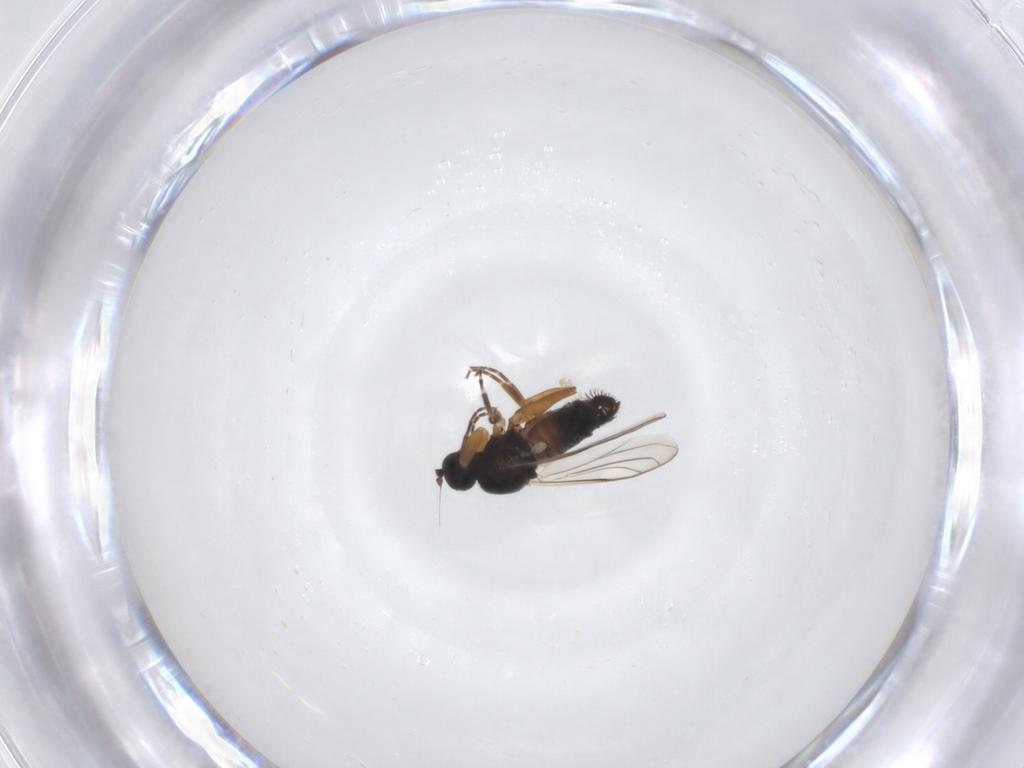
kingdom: Animalia
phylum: Arthropoda
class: Insecta
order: Diptera
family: Hybotidae
